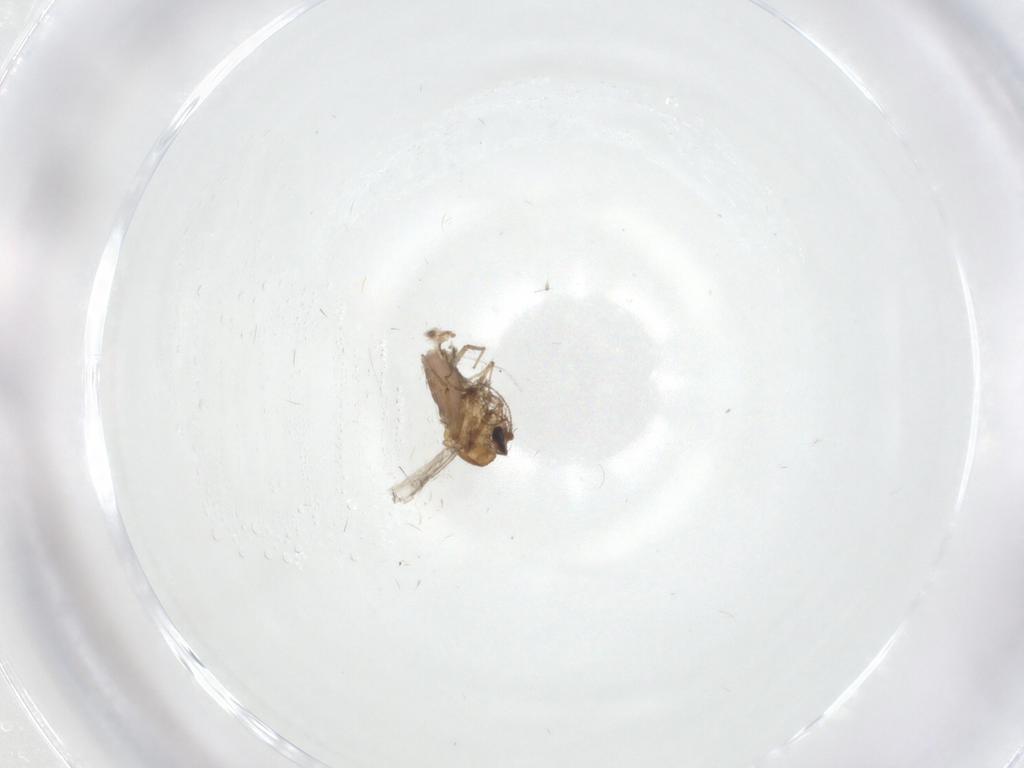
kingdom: Animalia
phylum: Arthropoda
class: Insecta
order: Diptera
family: Ceratopogonidae
